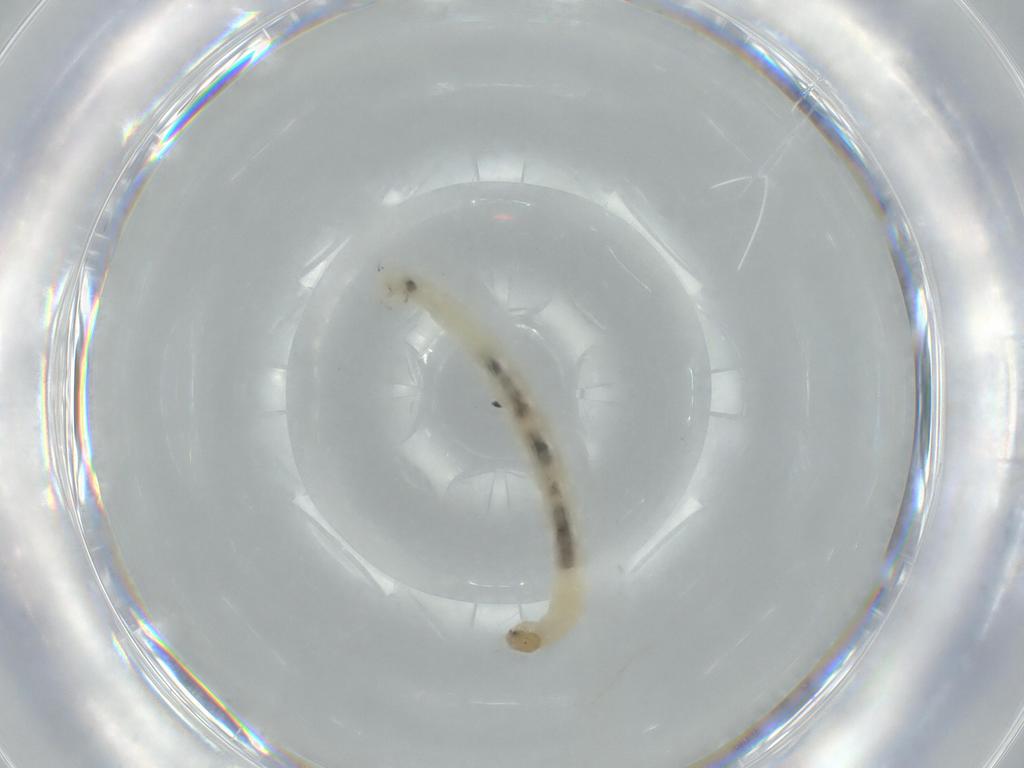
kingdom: Animalia
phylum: Arthropoda
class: Insecta
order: Diptera
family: Chironomidae
